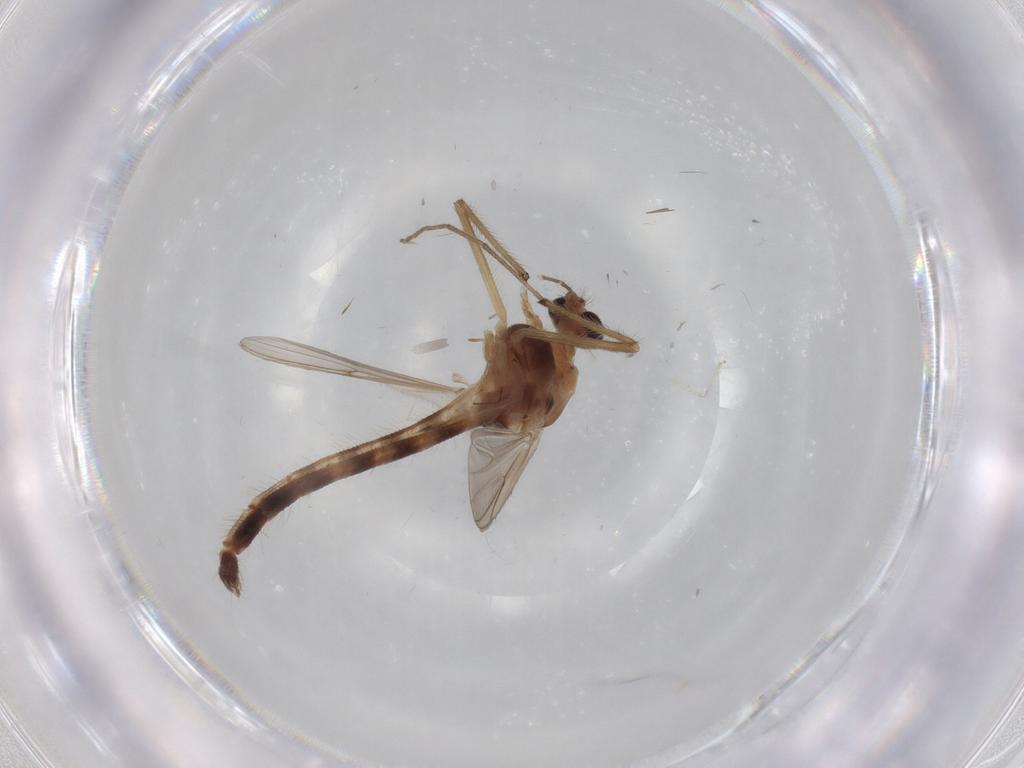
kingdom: Animalia
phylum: Arthropoda
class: Insecta
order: Diptera
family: Chironomidae
